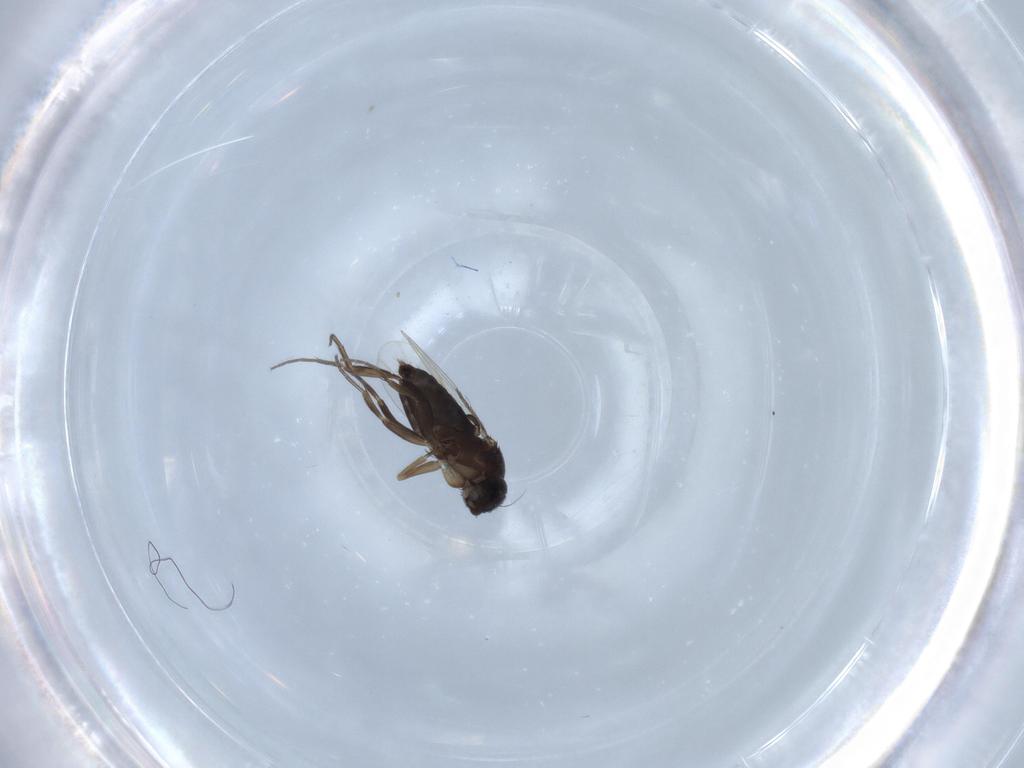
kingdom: Animalia
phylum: Arthropoda
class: Insecta
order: Diptera
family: Phoridae
